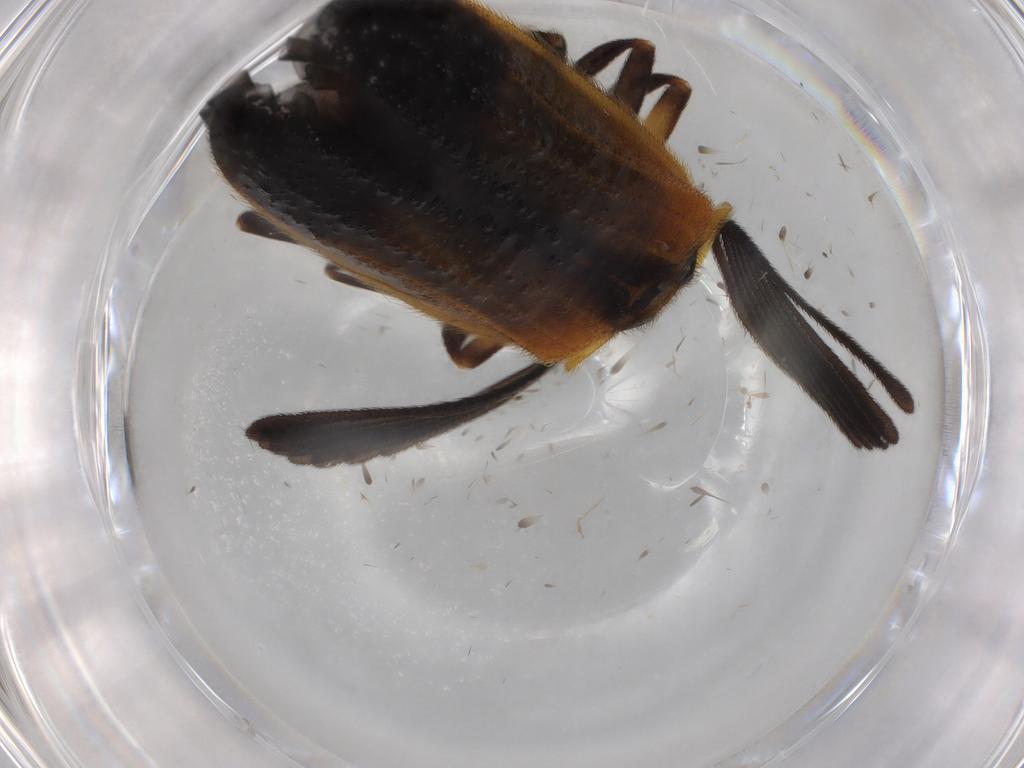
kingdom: Animalia
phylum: Arthropoda
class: Insecta
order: Coleoptera
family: Lampyridae
